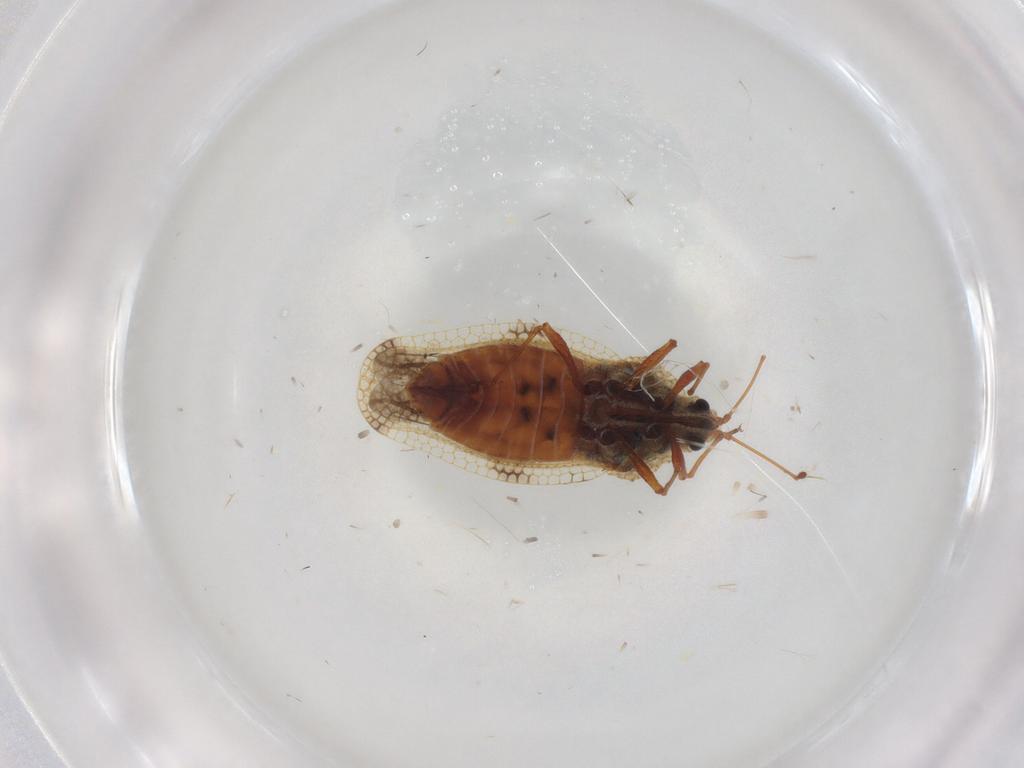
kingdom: Animalia
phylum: Arthropoda
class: Insecta
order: Hemiptera
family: Tingidae
